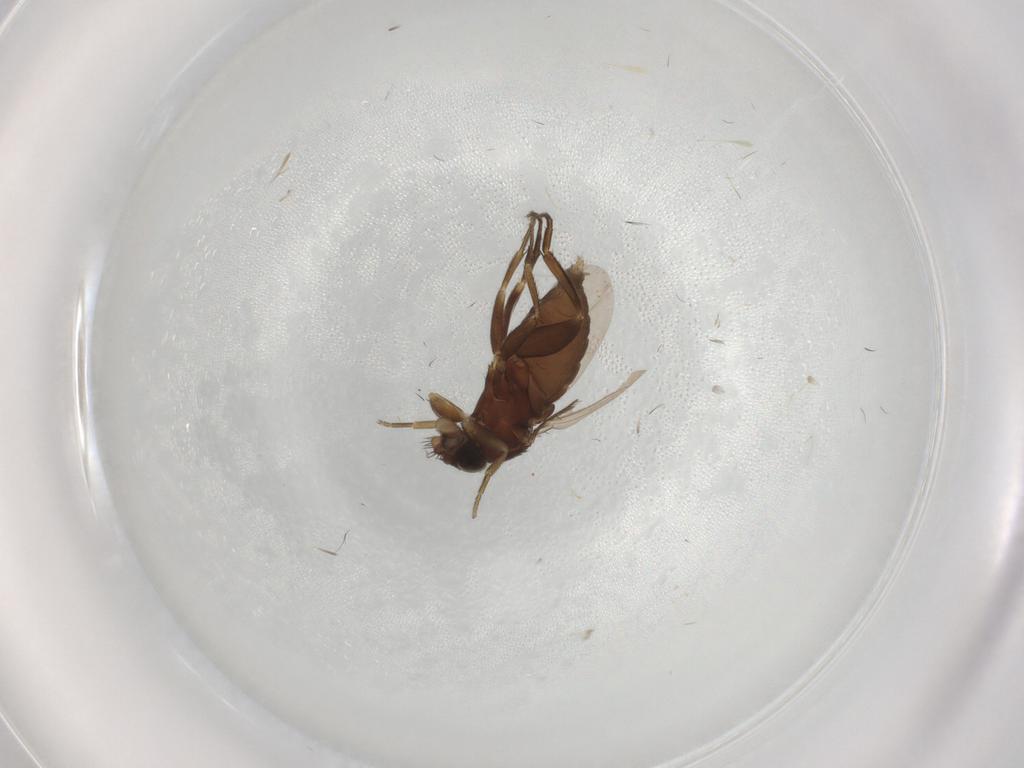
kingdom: Animalia
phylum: Arthropoda
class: Insecta
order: Diptera
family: Phoridae
